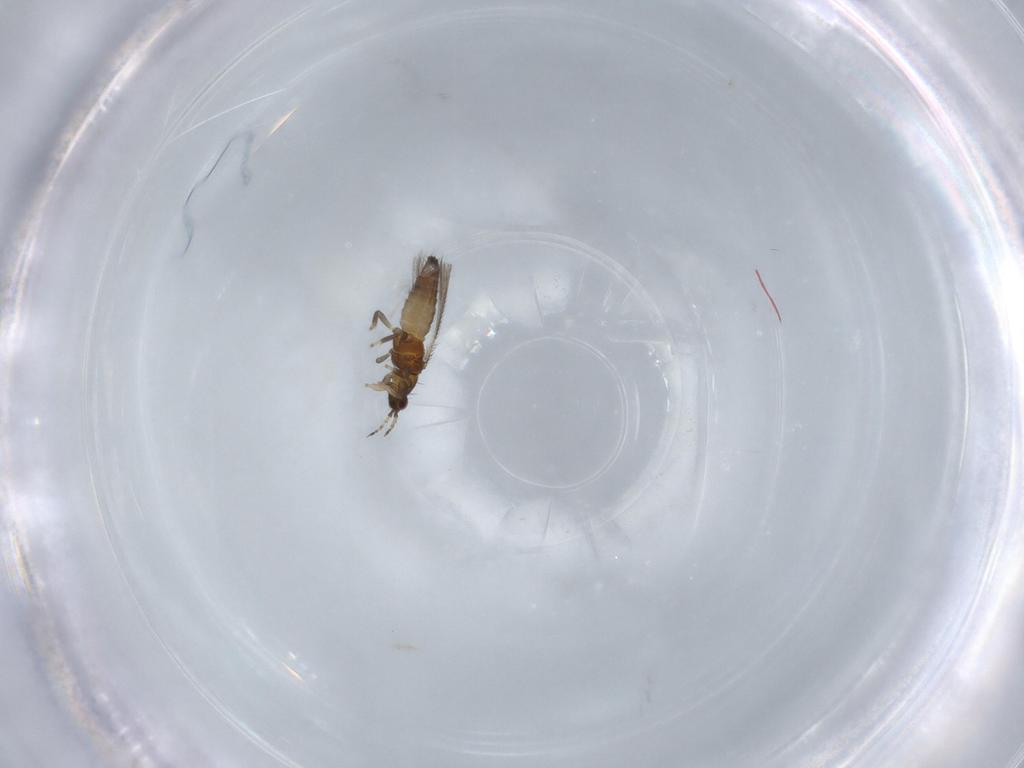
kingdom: Animalia
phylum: Arthropoda
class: Insecta
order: Thysanoptera
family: Thripidae
